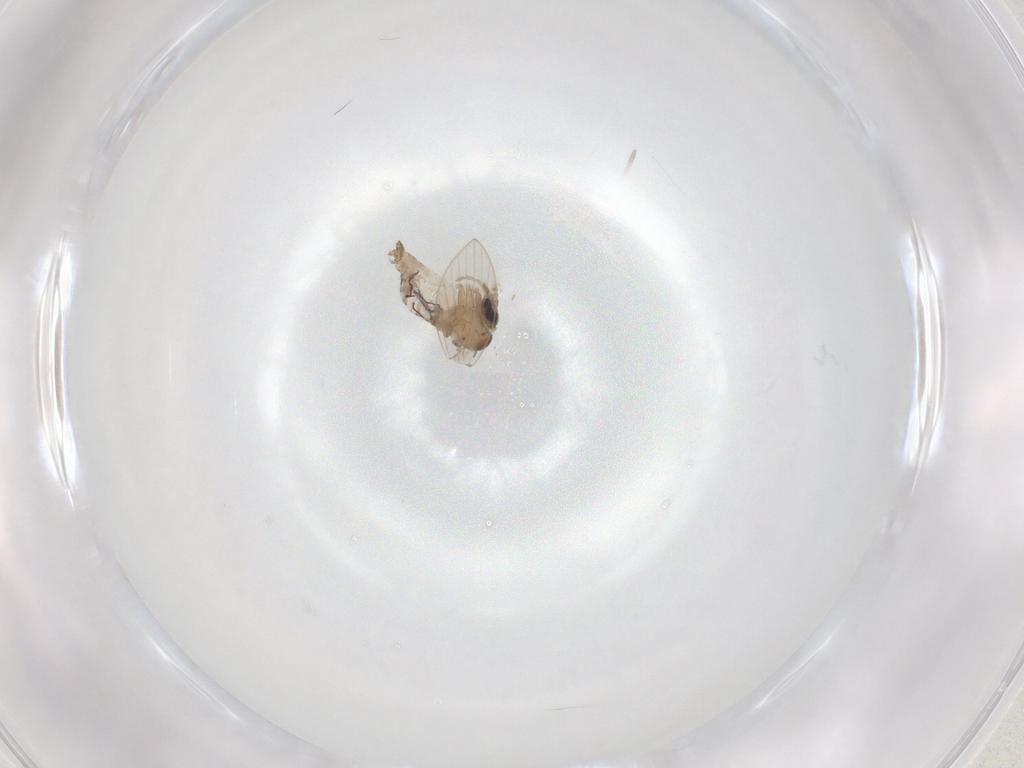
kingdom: Animalia
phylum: Arthropoda
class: Insecta
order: Diptera
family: Psychodidae
